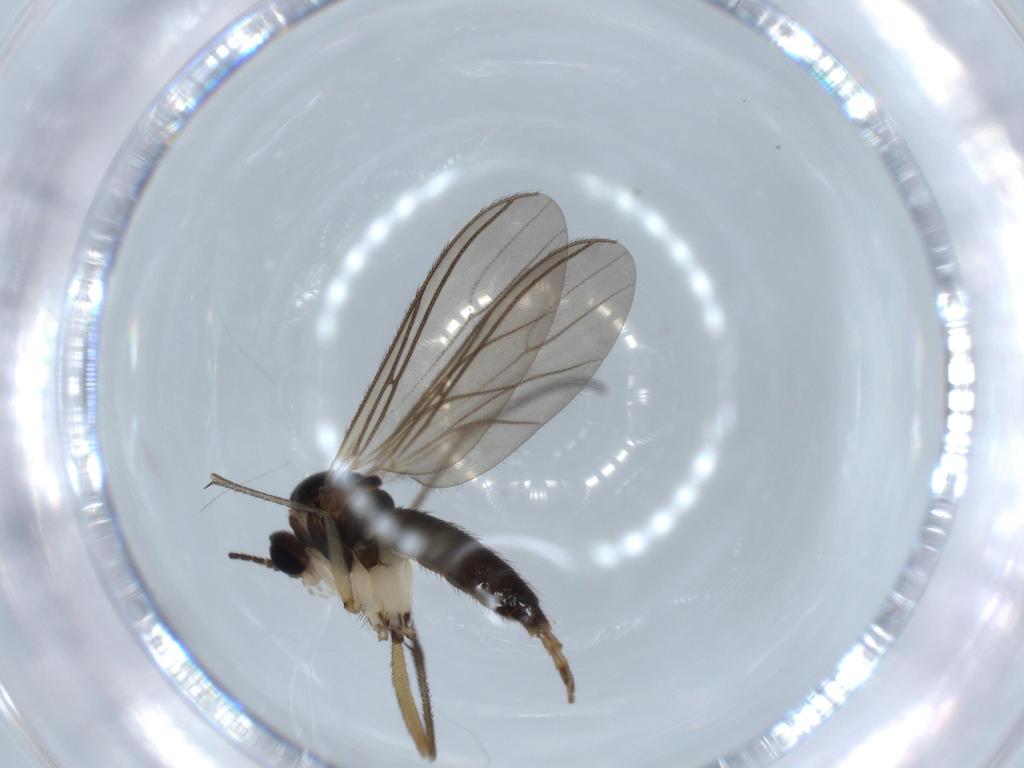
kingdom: Animalia
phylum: Arthropoda
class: Insecta
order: Diptera
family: Sciaridae
